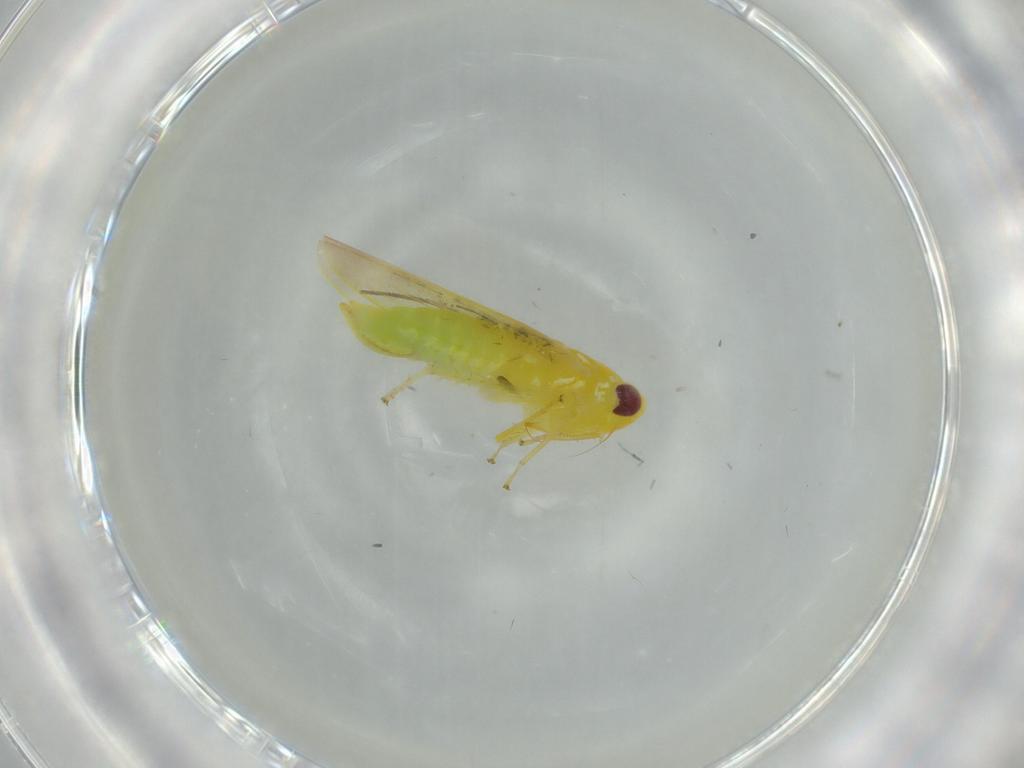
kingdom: Animalia
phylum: Arthropoda
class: Insecta
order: Hemiptera
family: Cicadellidae
